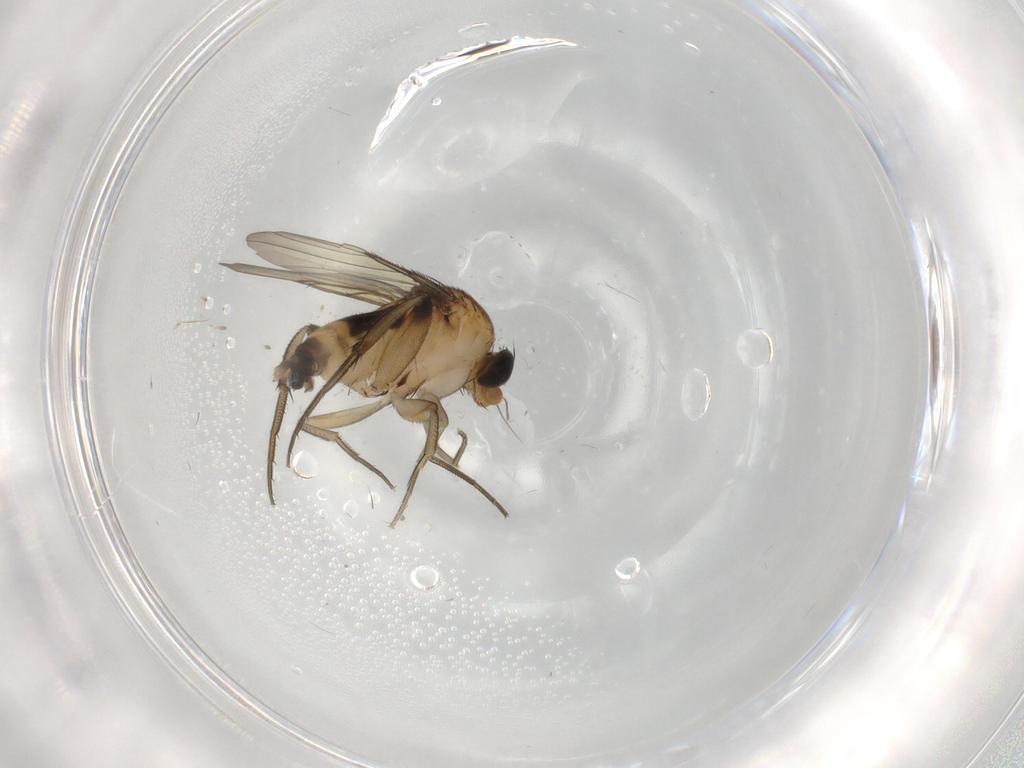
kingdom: Animalia
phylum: Arthropoda
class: Insecta
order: Diptera
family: Phoridae
